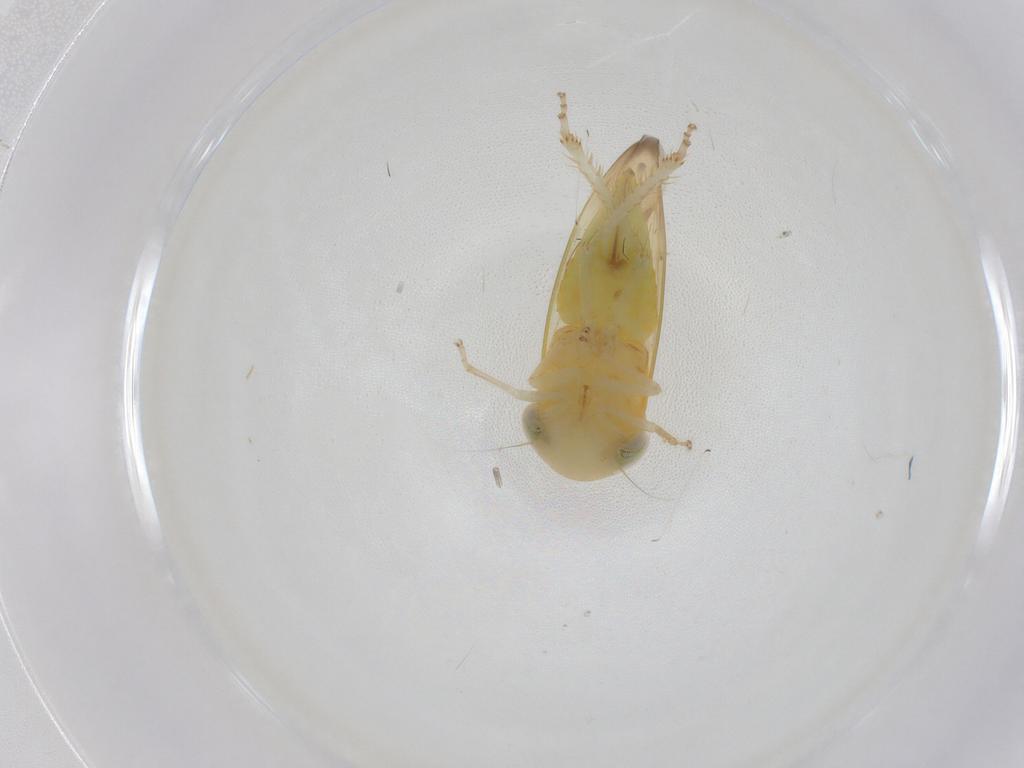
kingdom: Animalia
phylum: Arthropoda
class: Insecta
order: Hemiptera
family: Cicadellidae
